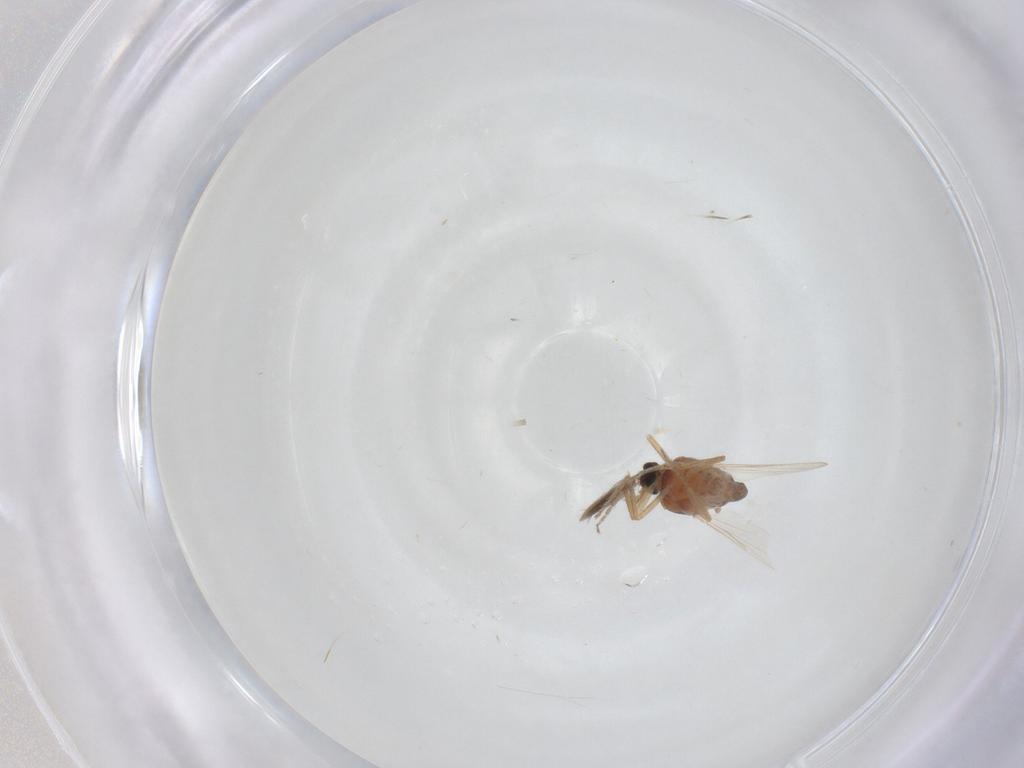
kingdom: Animalia
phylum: Arthropoda
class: Insecta
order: Diptera
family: Ceratopogonidae
